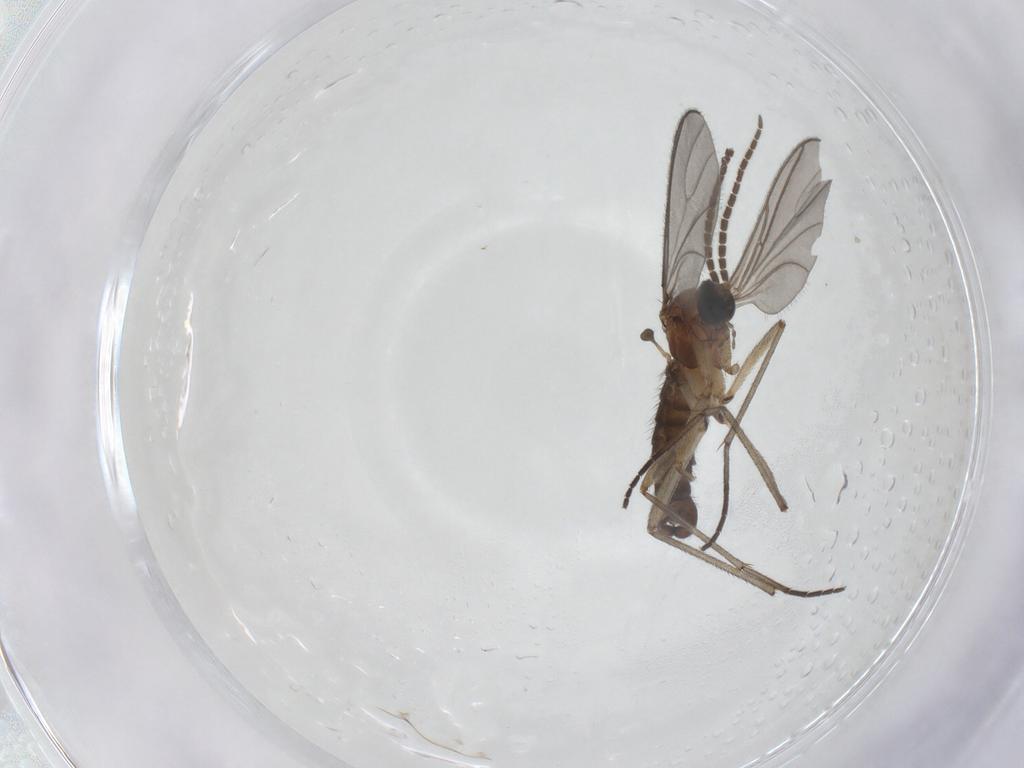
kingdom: Animalia
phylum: Arthropoda
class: Insecta
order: Diptera
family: Sciaridae
